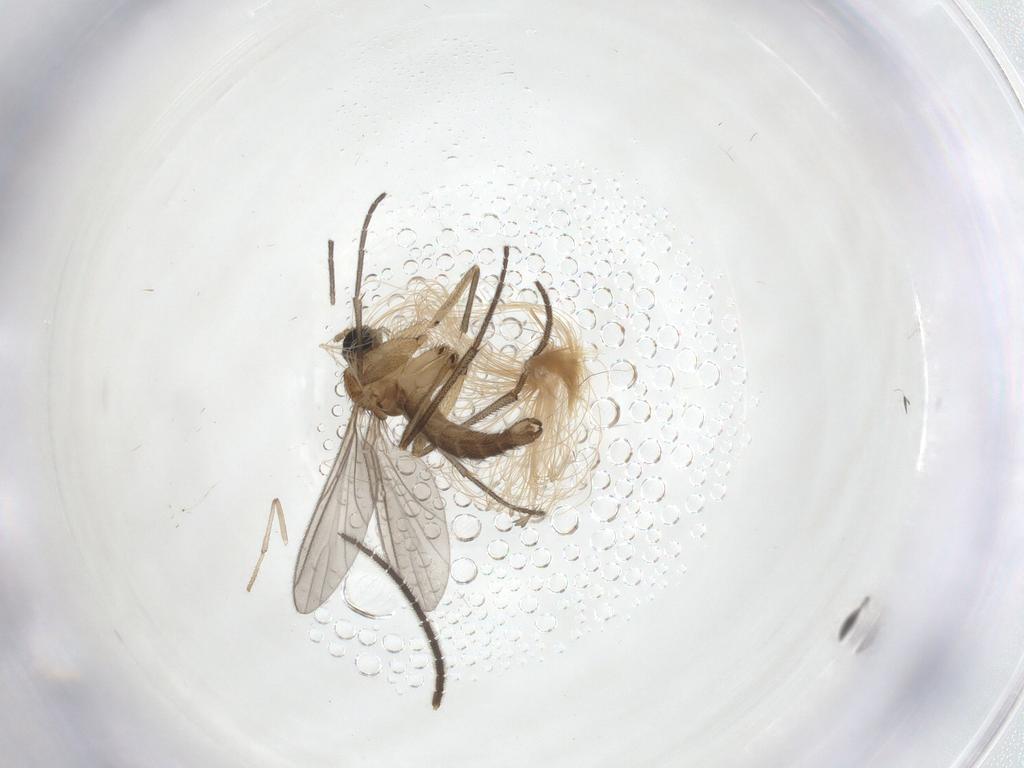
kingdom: Animalia
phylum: Arthropoda
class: Insecta
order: Diptera
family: Sciaridae
